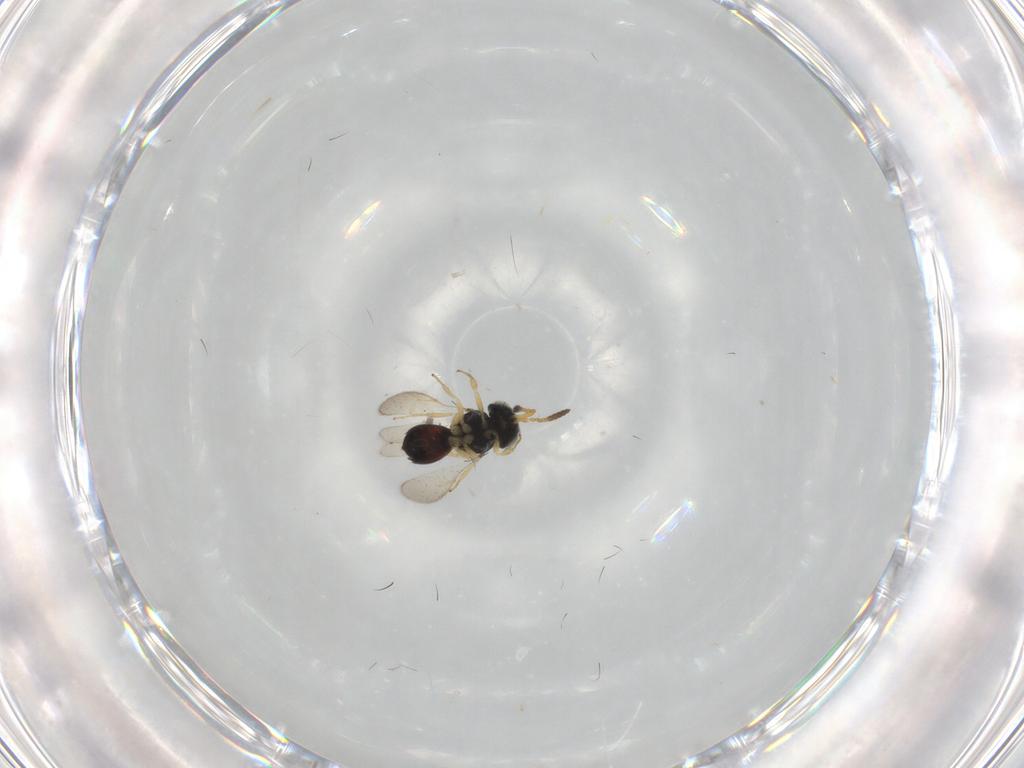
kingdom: Animalia
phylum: Arthropoda
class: Insecta
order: Hymenoptera
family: Scelionidae
